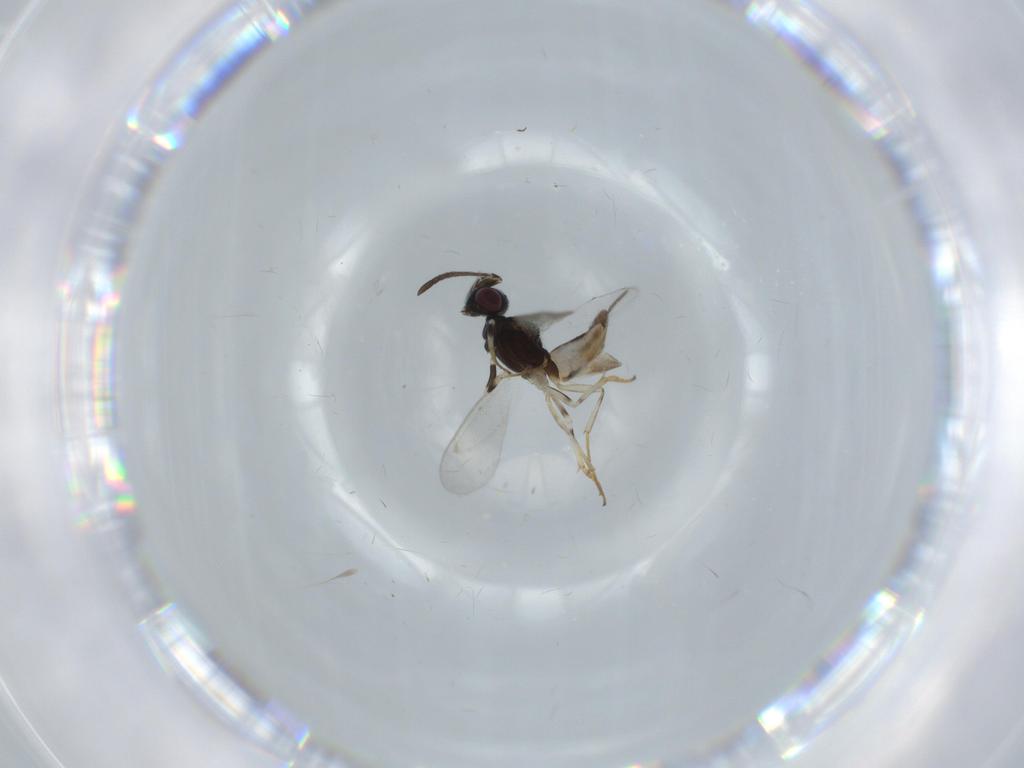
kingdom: Animalia
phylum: Arthropoda
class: Insecta
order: Hymenoptera
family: Eupelmidae
